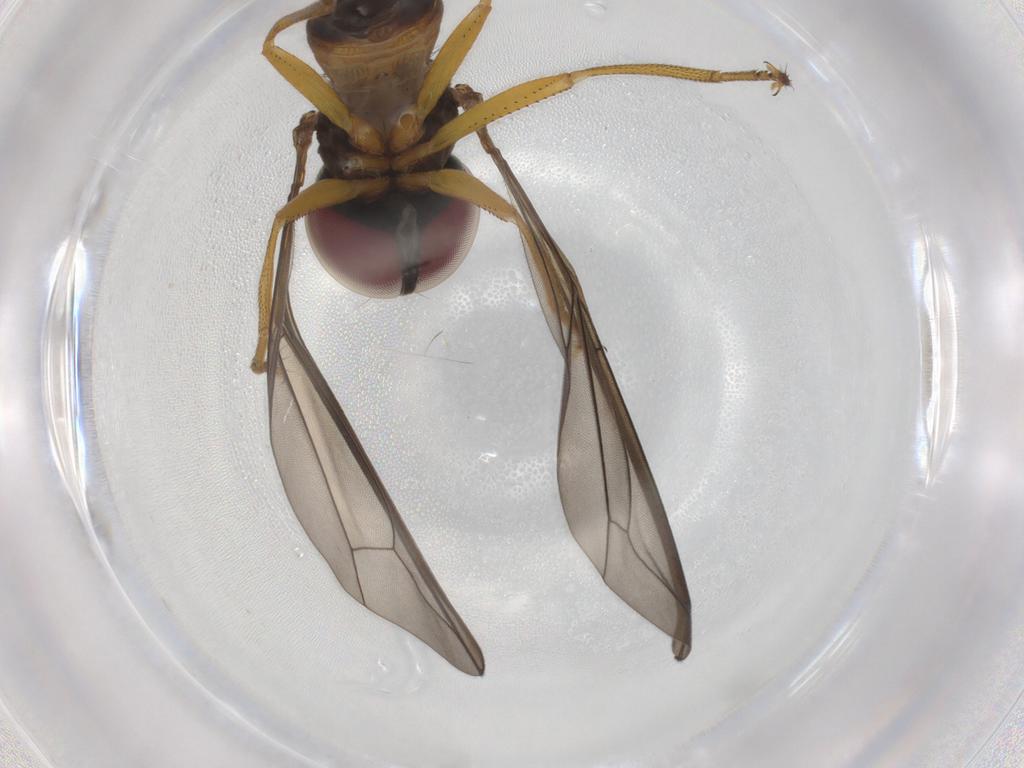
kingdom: Animalia
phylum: Arthropoda
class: Insecta
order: Diptera
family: Pipunculidae
